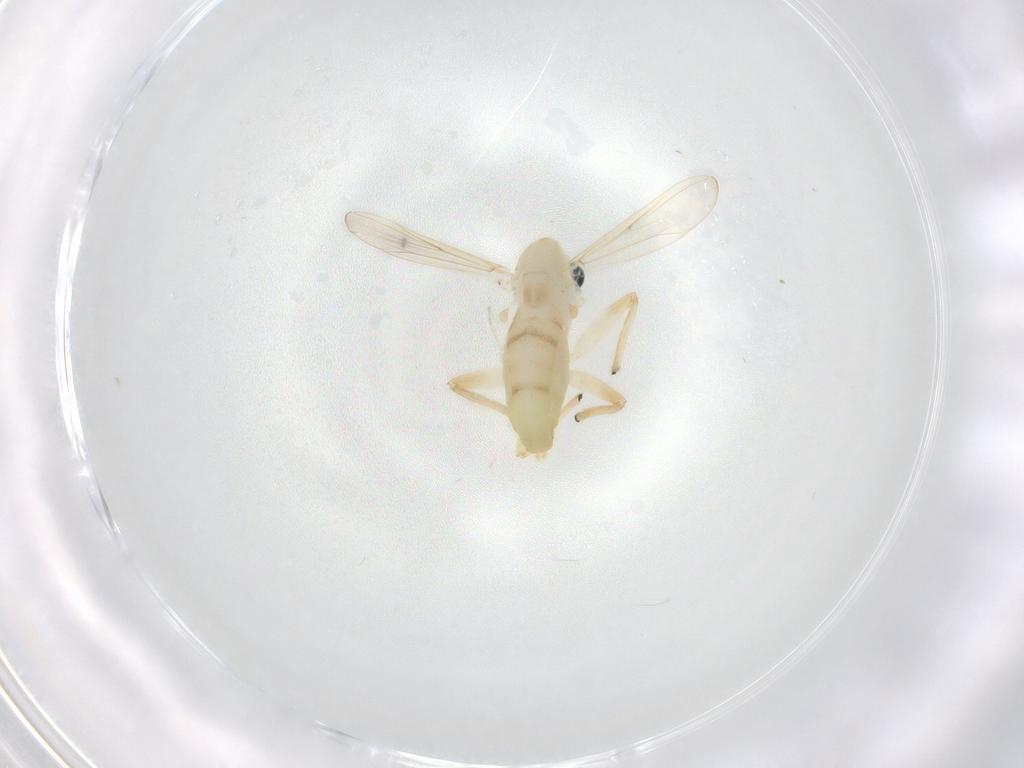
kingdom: Animalia
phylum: Arthropoda
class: Insecta
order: Diptera
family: Chironomidae
